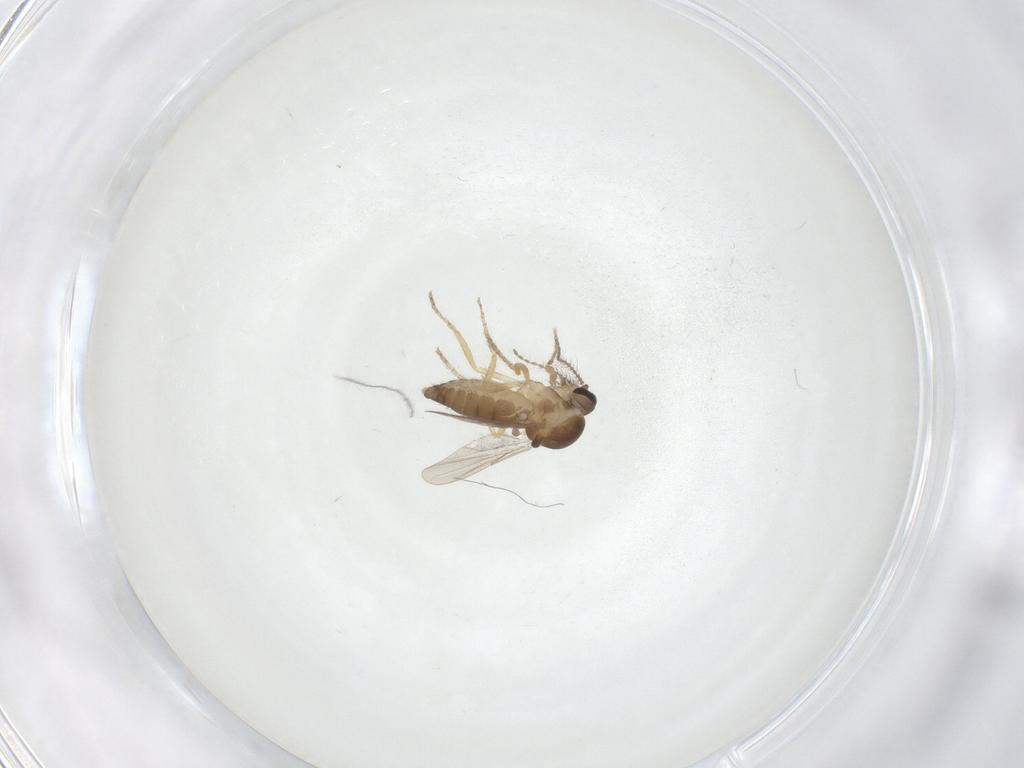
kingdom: Animalia
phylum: Arthropoda
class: Insecta
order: Diptera
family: Ceratopogonidae
